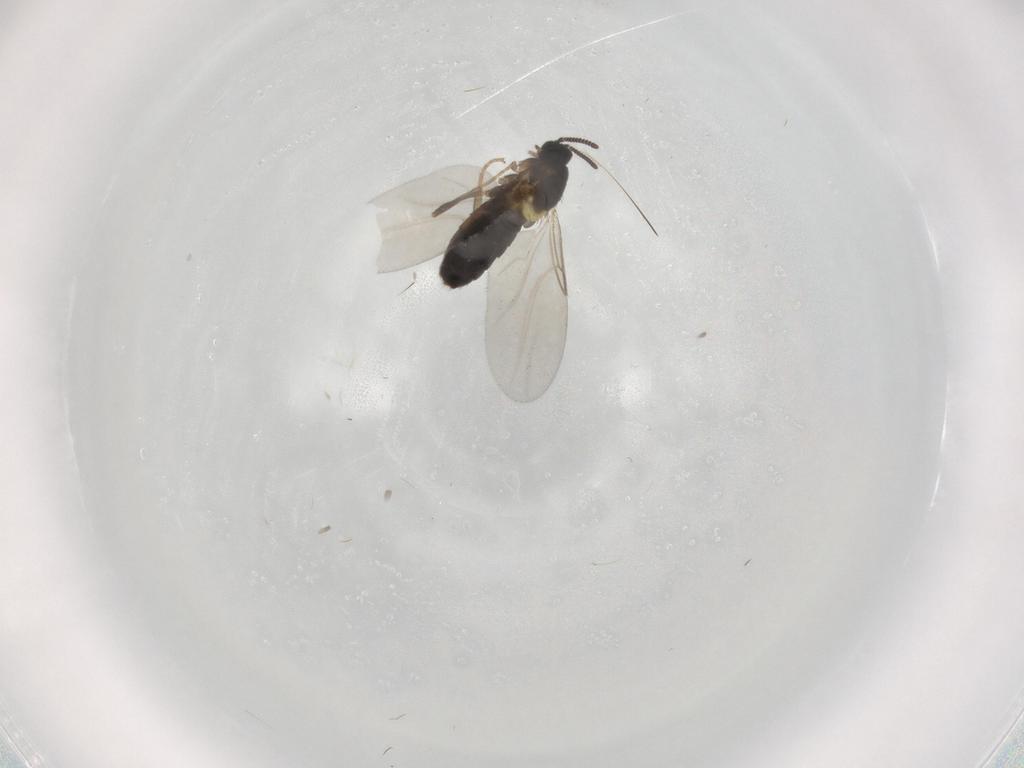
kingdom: Animalia
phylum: Arthropoda
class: Insecta
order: Diptera
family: Scatopsidae
